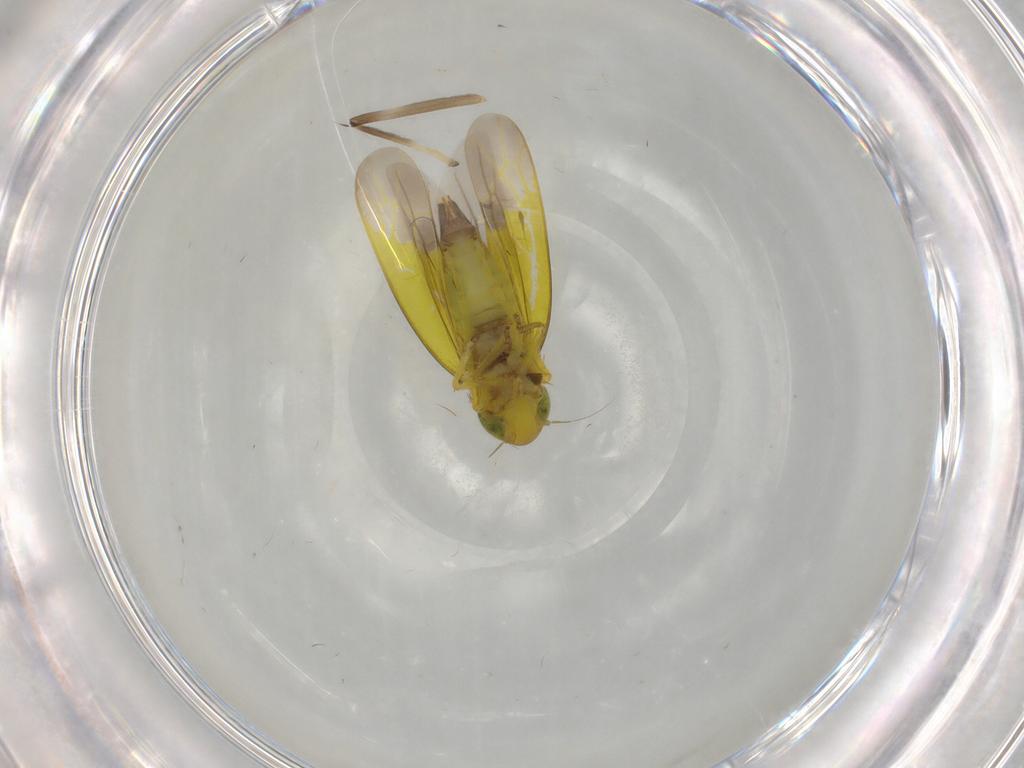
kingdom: Animalia
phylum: Arthropoda
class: Insecta
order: Hemiptera
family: Cicadellidae
